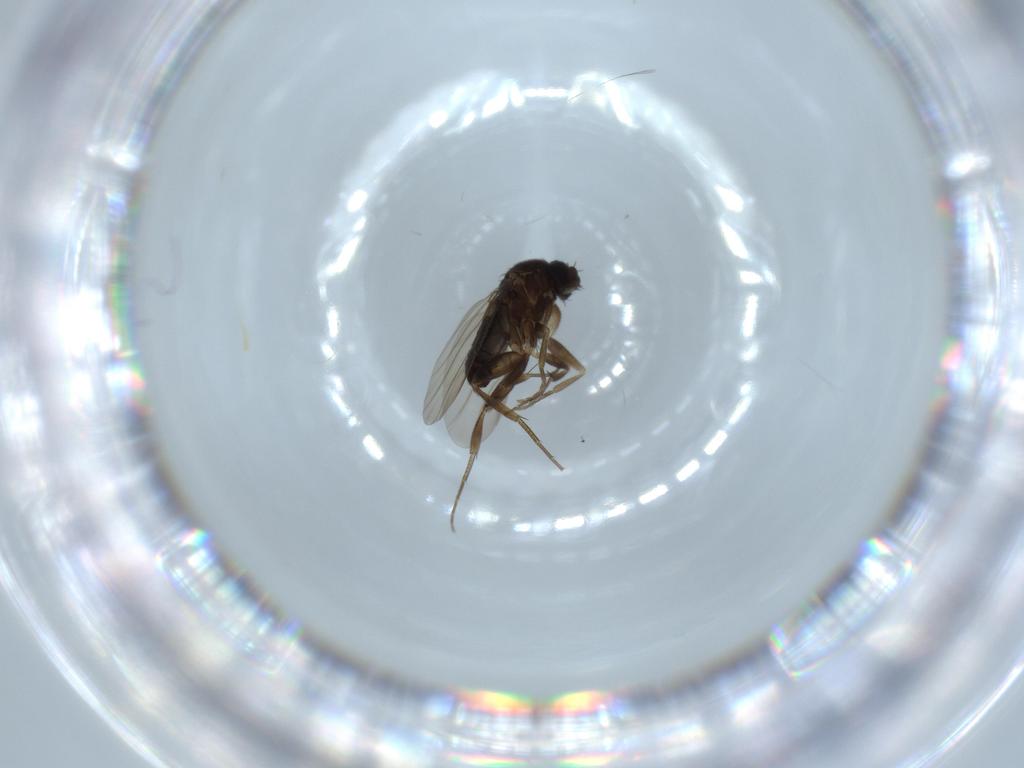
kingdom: Animalia
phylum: Arthropoda
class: Insecta
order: Diptera
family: Phoridae
